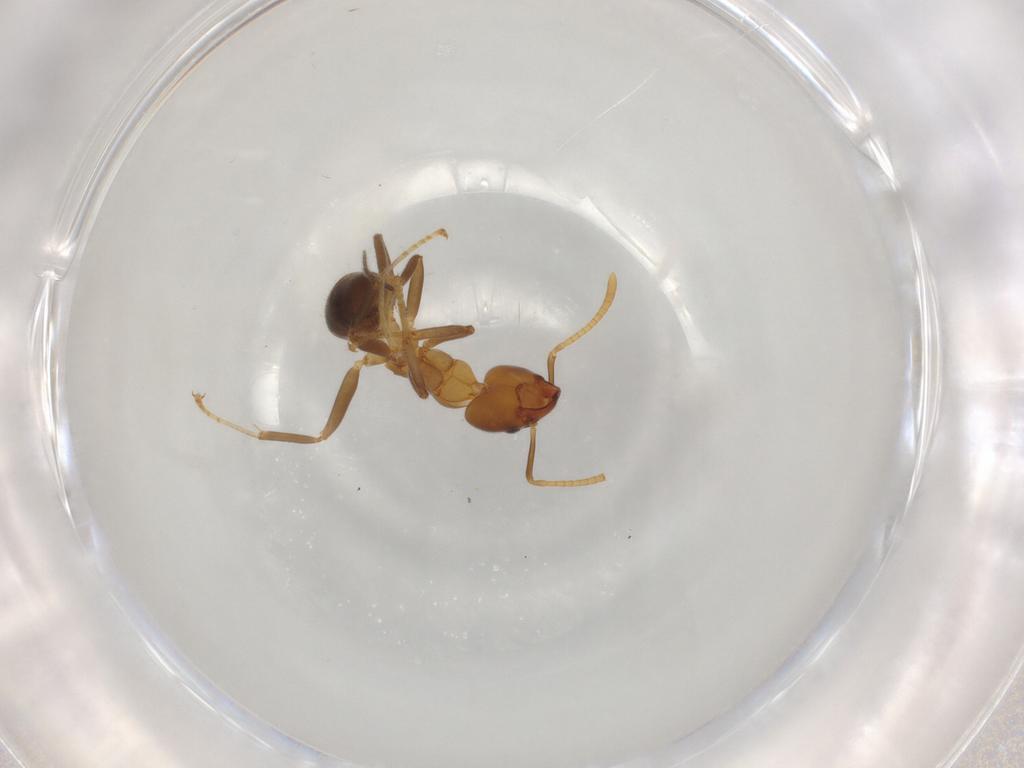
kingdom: Animalia
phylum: Arthropoda
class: Insecta
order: Hymenoptera
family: Formicidae
